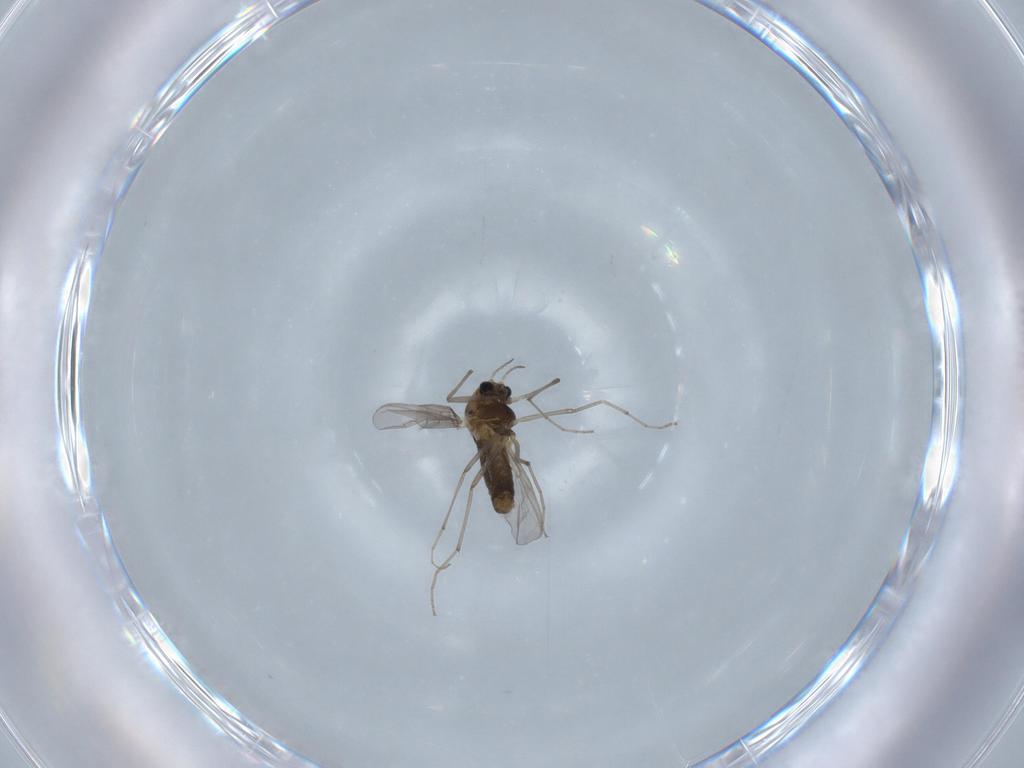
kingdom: Animalia
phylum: Arthropoda
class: Insecta
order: Diptera
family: Chironomidae
